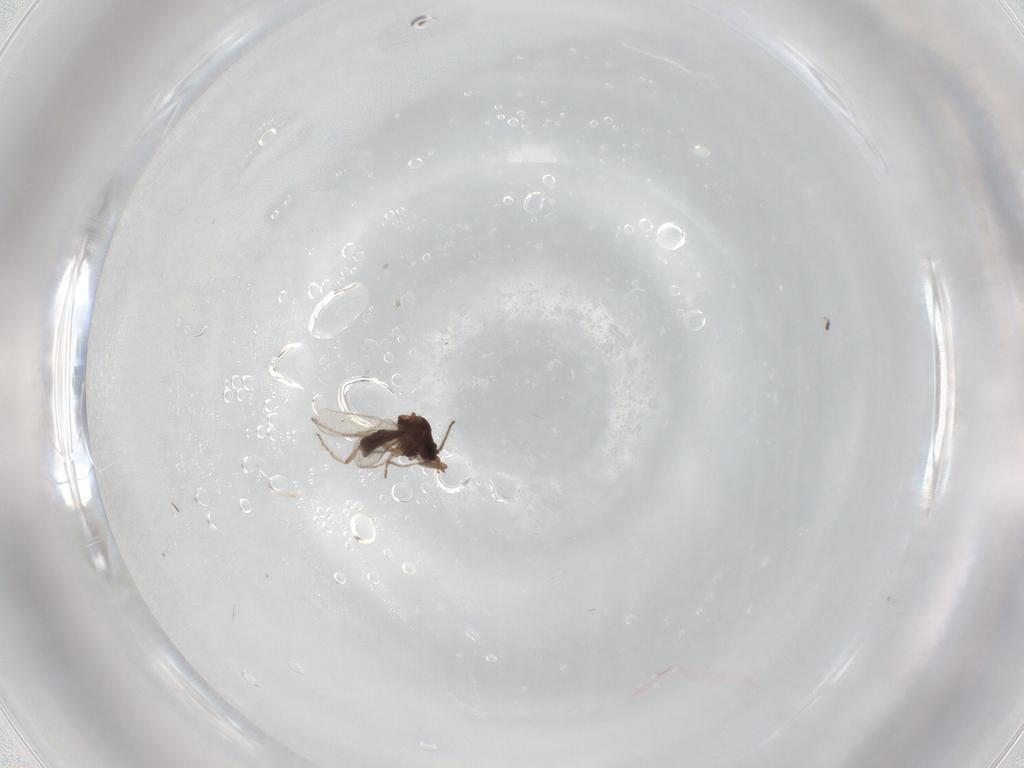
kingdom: Animalia
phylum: Arthropoda
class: Insecta
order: Diptera
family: Ceratopogonidae
